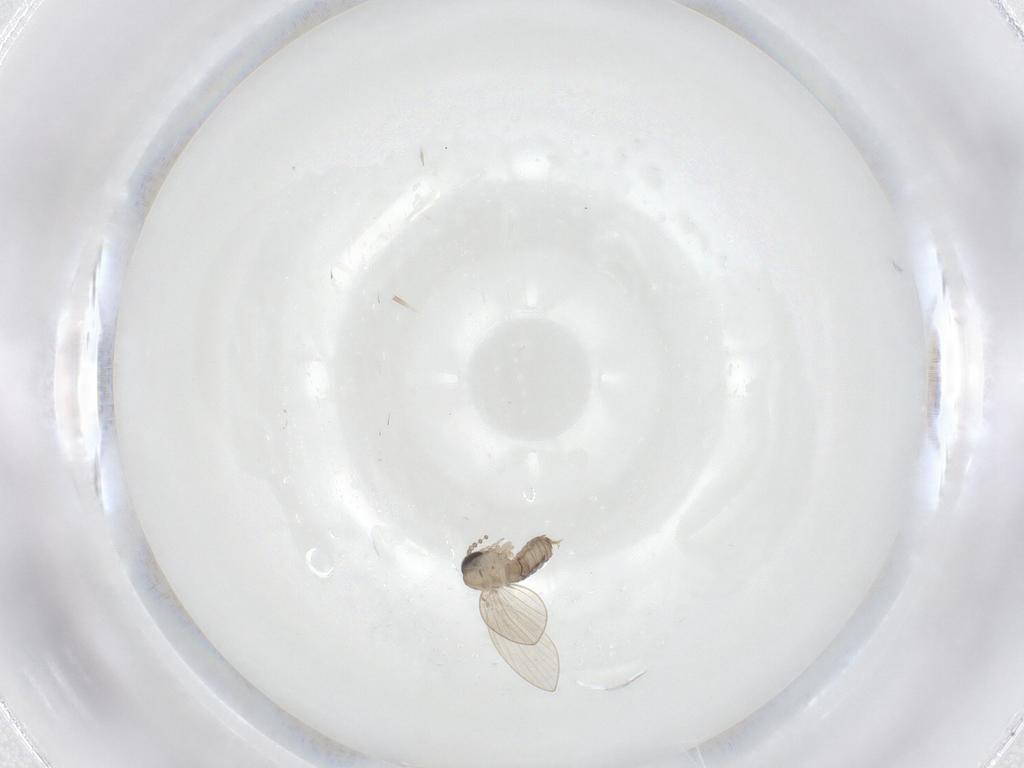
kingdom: Animalia
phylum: Arthropoda
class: Insecta
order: Diptera
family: Psychodidae
